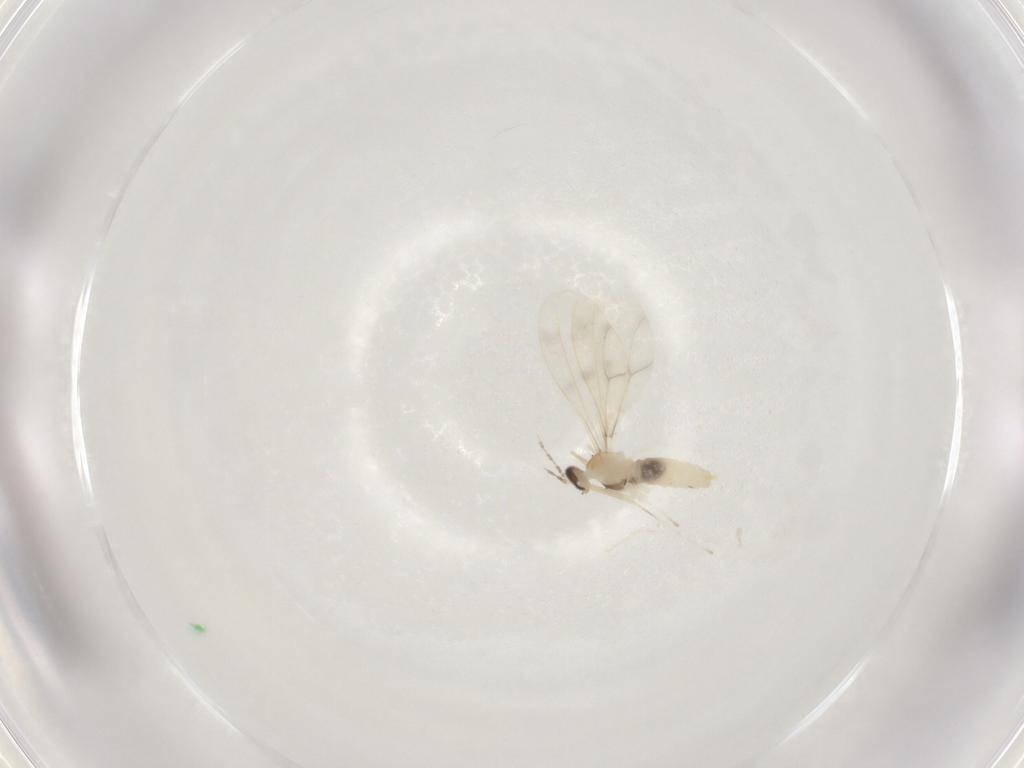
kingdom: Animalia
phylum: Arthropoda
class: Insecta
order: Diptera
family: Cecidomyiidae
